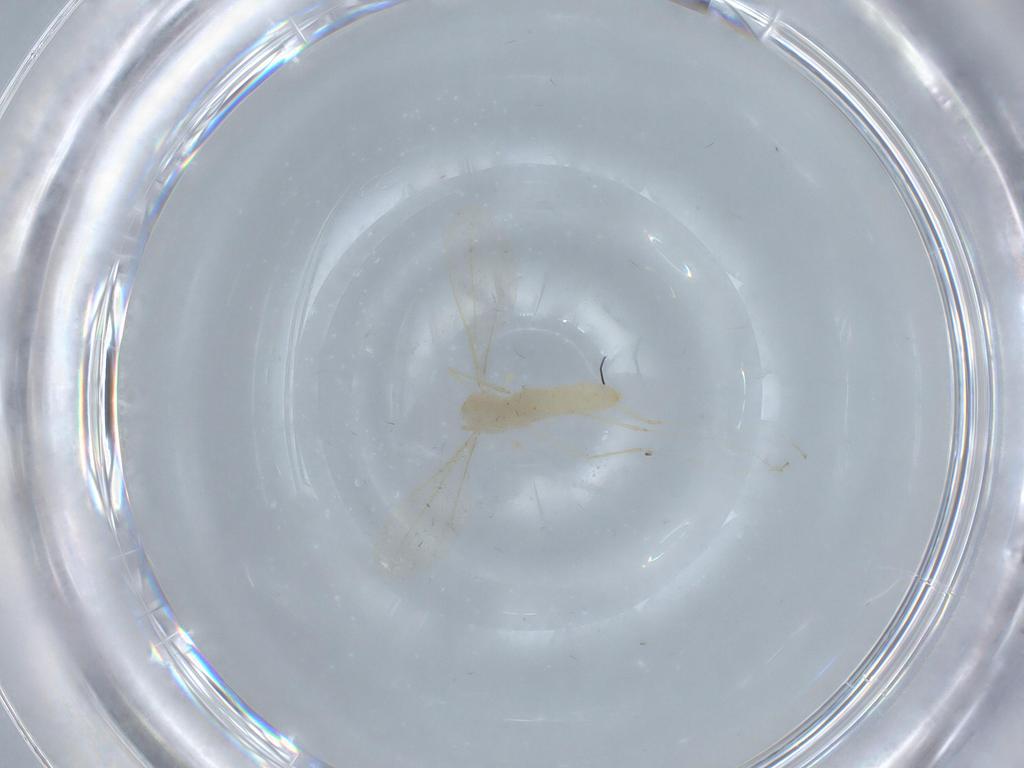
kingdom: Animalia
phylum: Arthropoda
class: Insecta
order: Diptera
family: Cecidomyiidae
